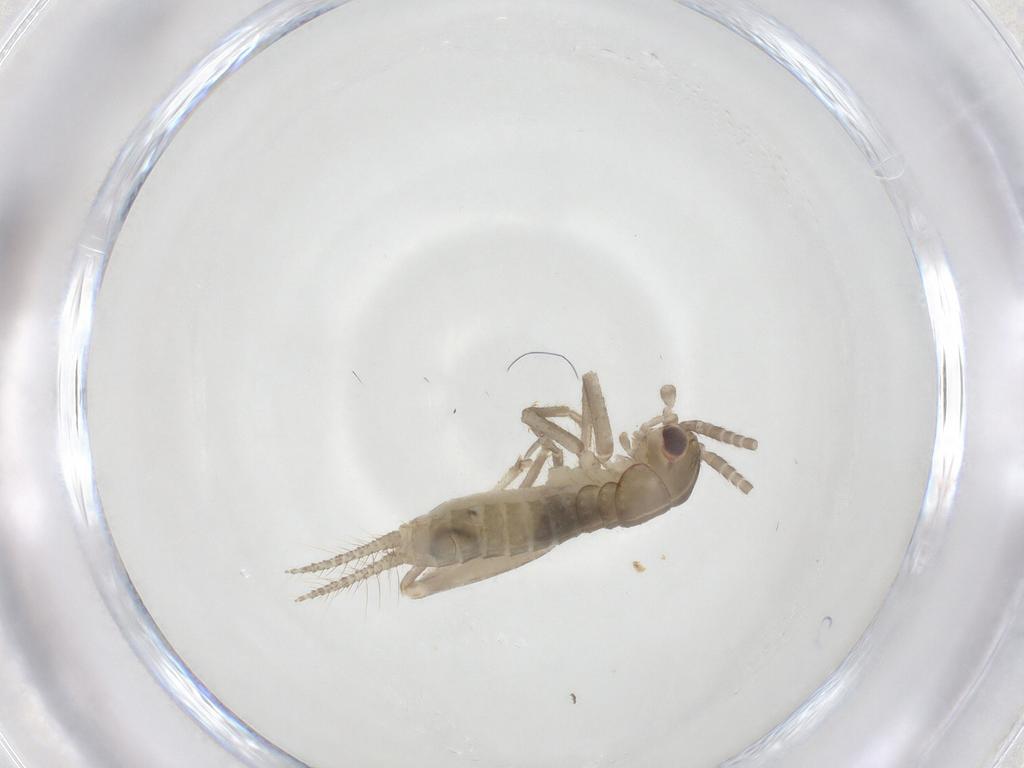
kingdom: Animalia
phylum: Arthropoda
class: Insecta
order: Orthoptera
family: Gryllidae
